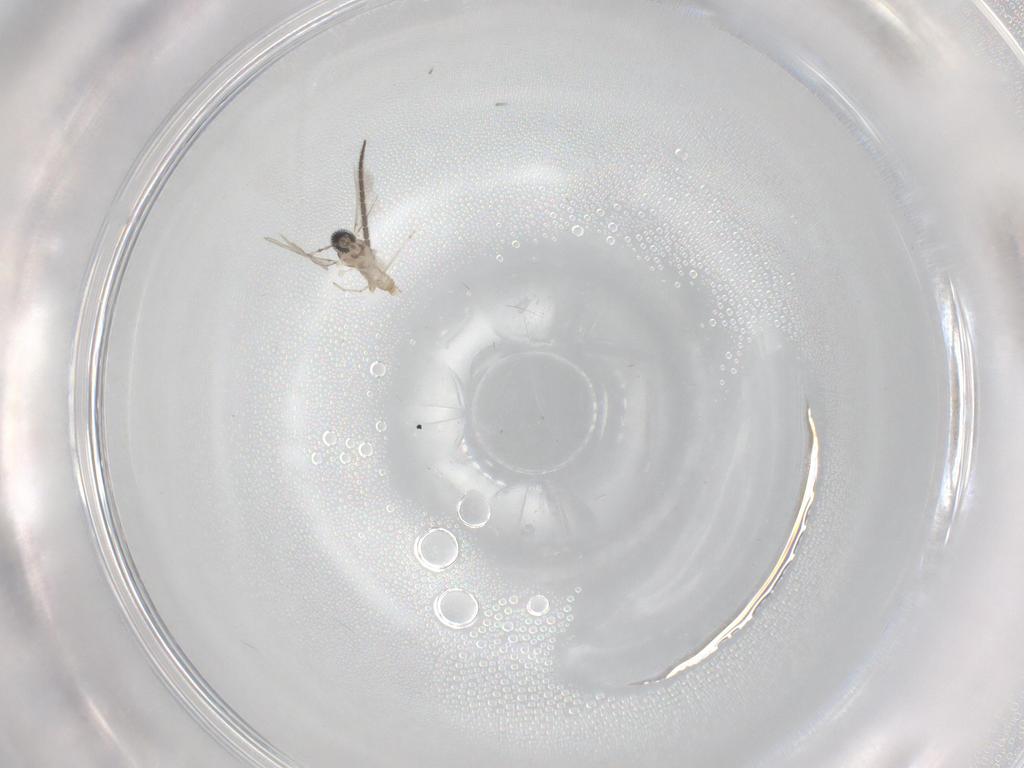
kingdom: Animalia
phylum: Arthropoda
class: Insecta
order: Diptera
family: Cecidomyiidae
